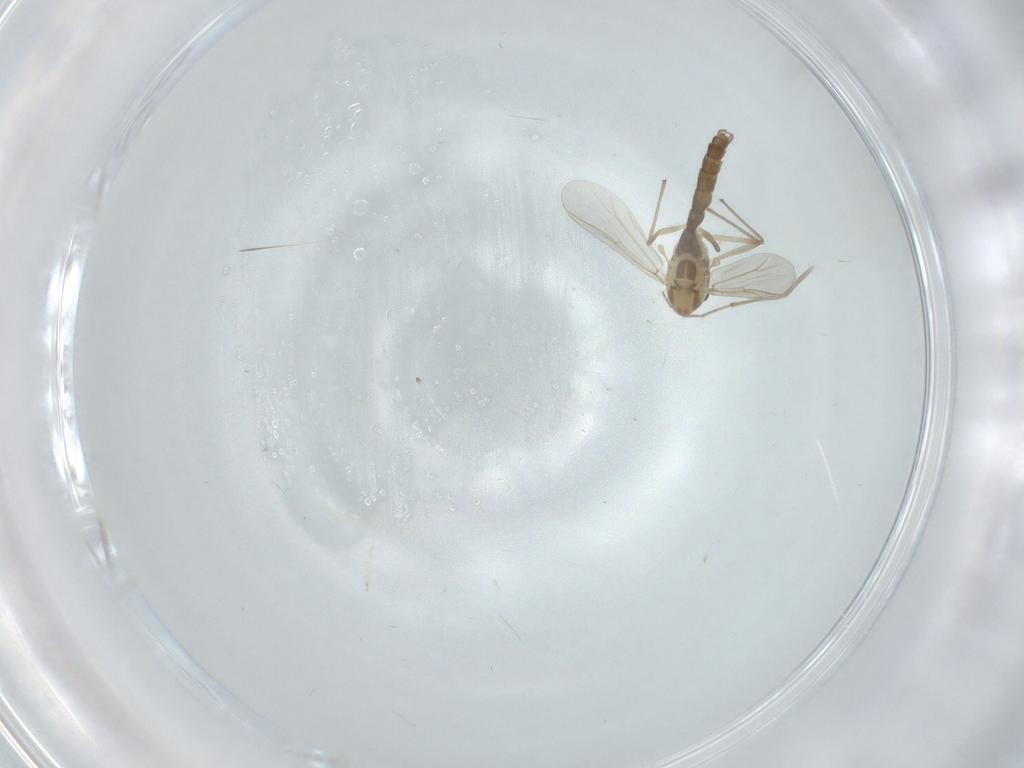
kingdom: Animalia
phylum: Arthropoda
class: Insecta
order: Diptera
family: Chironomidae
